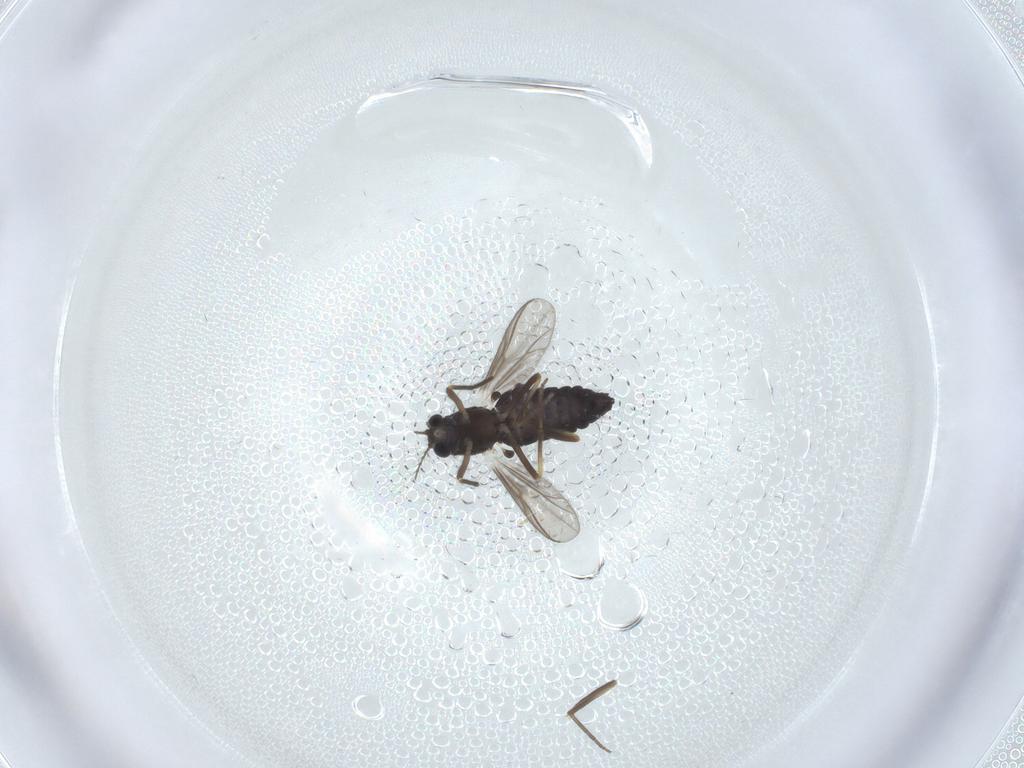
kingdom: Animalia
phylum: Arthropoda
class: Insecta
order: Diptera
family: Chironomidae
